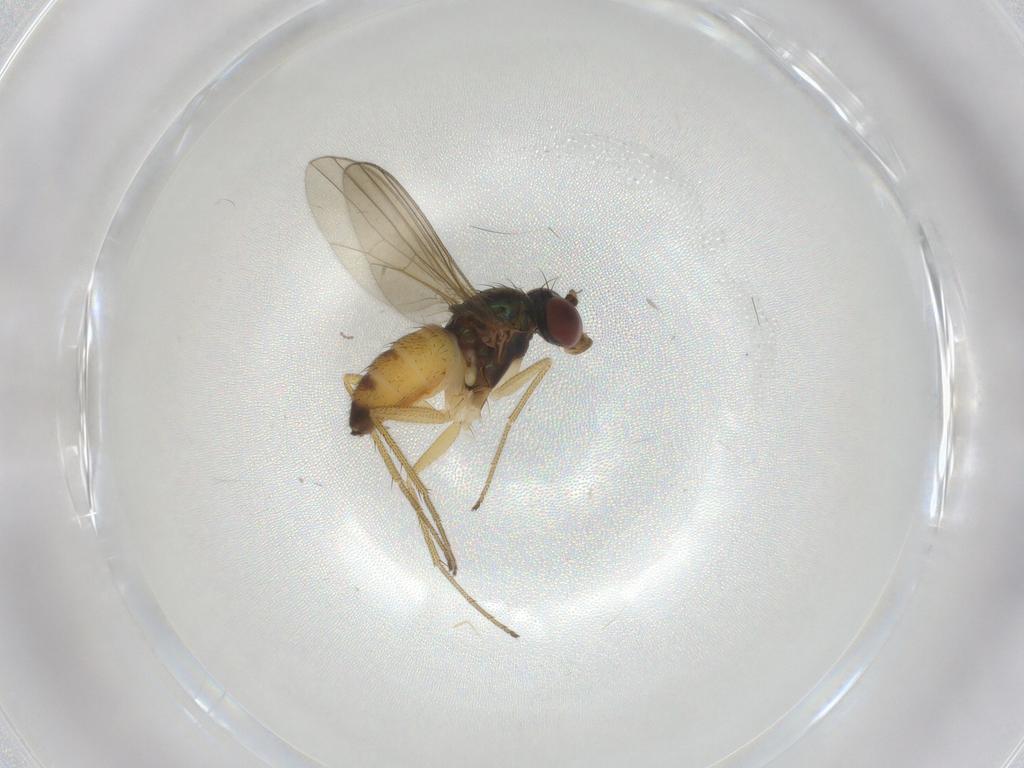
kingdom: Animalia
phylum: Arthropoda
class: Insecta
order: Diptera
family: Dolichopodidae
